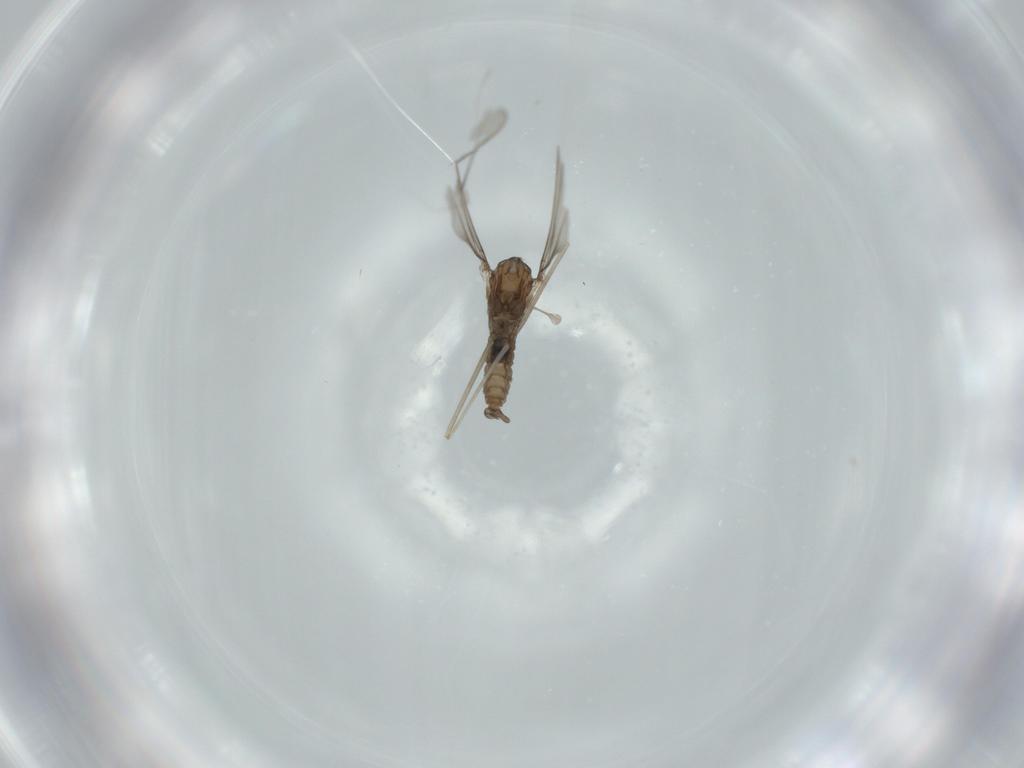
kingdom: Animalia
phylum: Arthropoda
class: Insecta
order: Diptera
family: Cecidomyiidae
